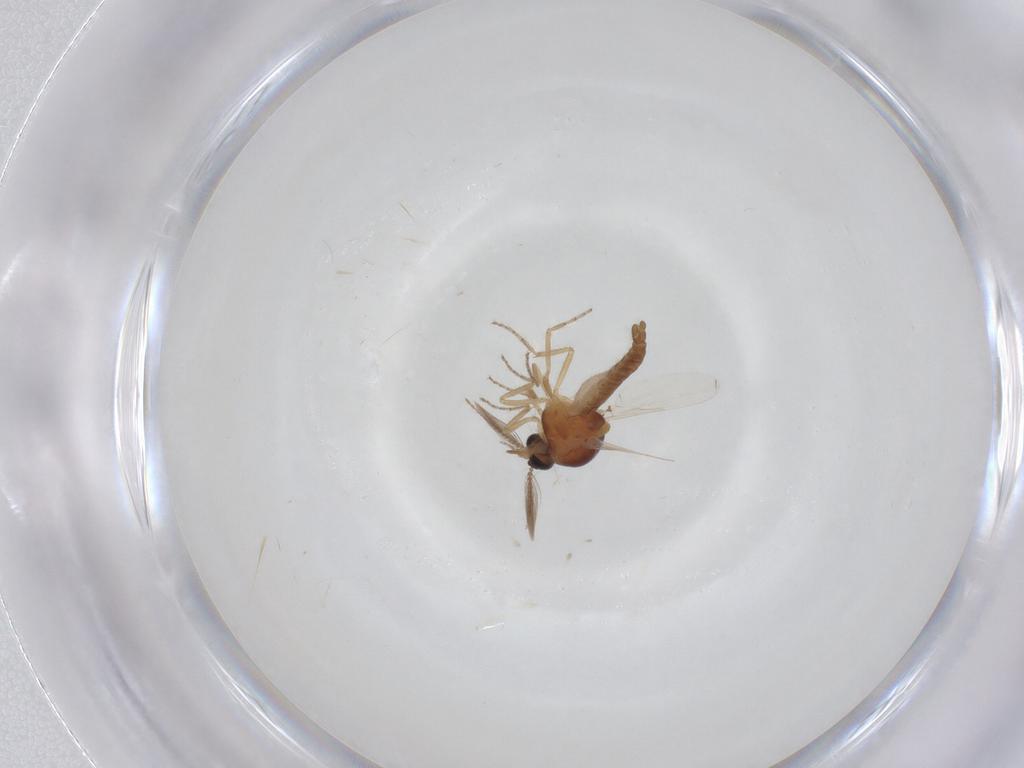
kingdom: Animalia
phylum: Arthropoda
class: Insecta
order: Diptera
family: Ceratopogonidae
